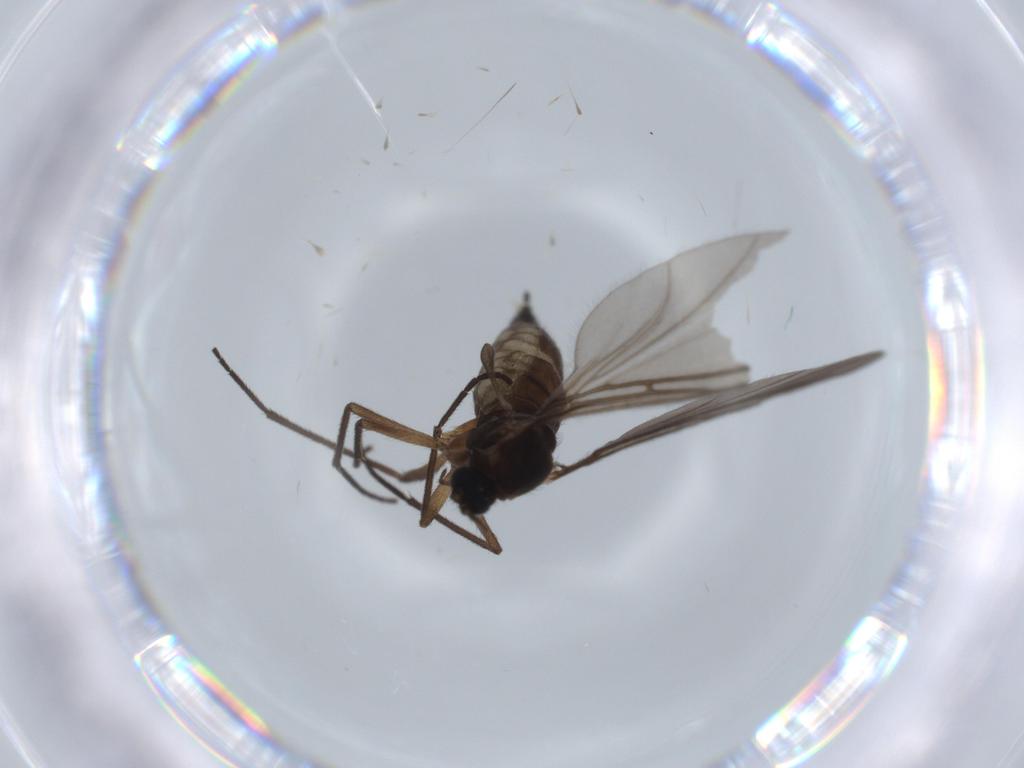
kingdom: Animalia
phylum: Arthropoda
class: Insecta
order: Diptera
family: Sciaridae
